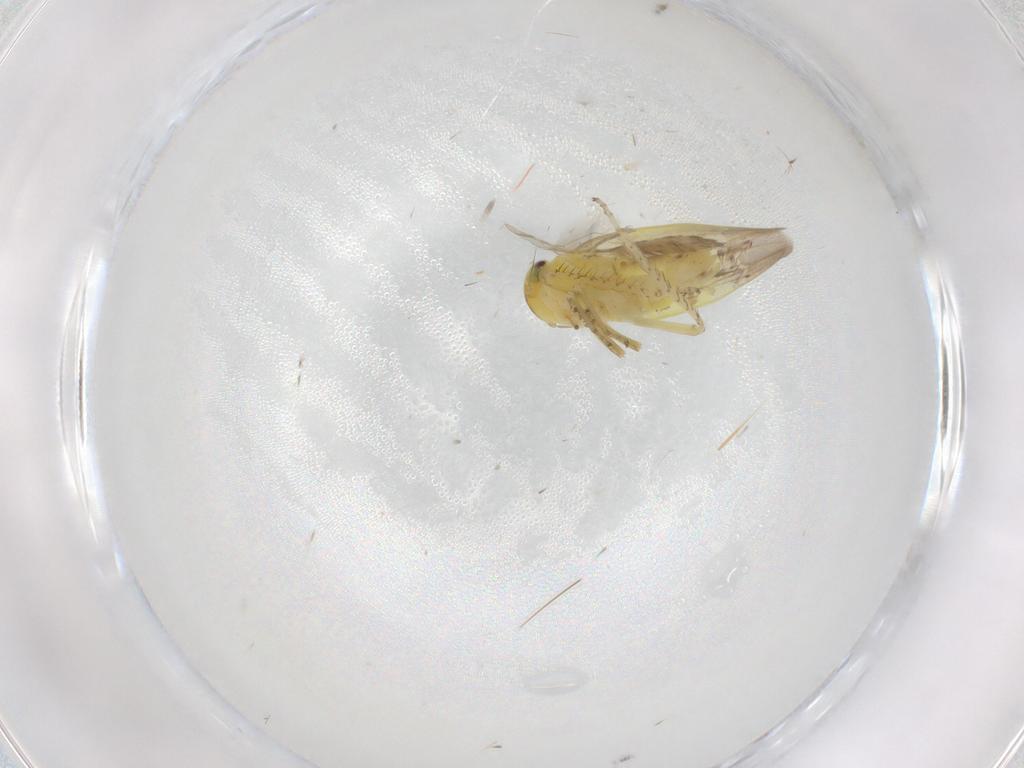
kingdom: Animalia
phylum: Arthropoda
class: Insecta
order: Hemiptera
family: Cicadellidae
